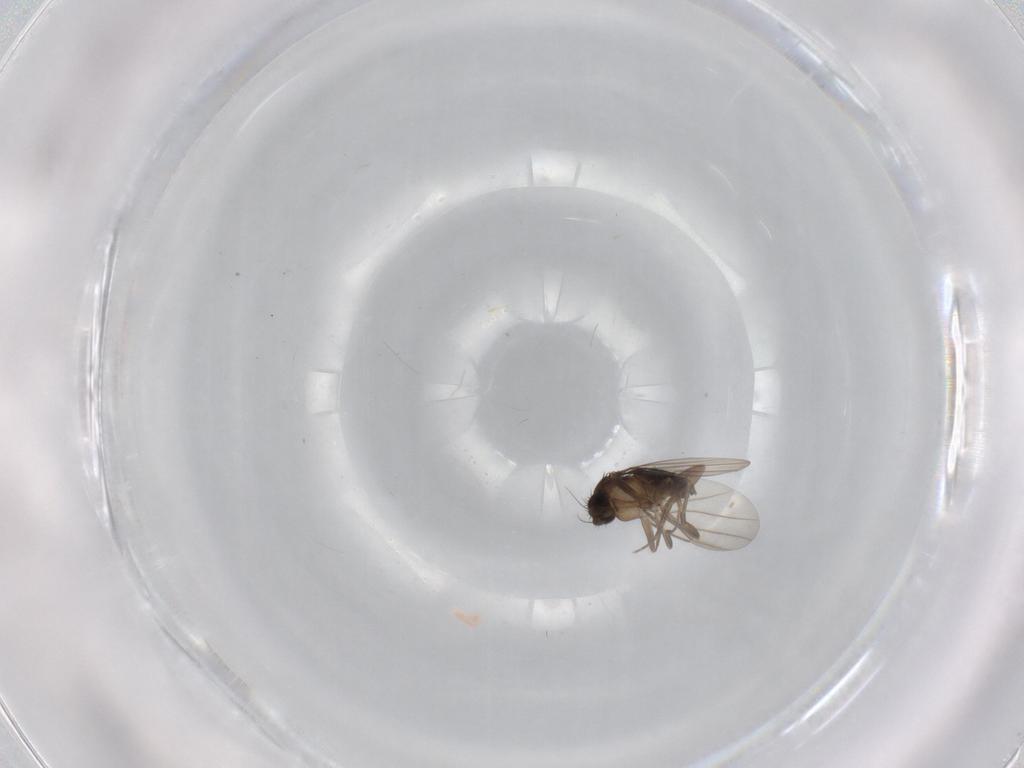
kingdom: Animalia
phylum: Arthropoda
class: Insecta
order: Diptera
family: Phoridae
